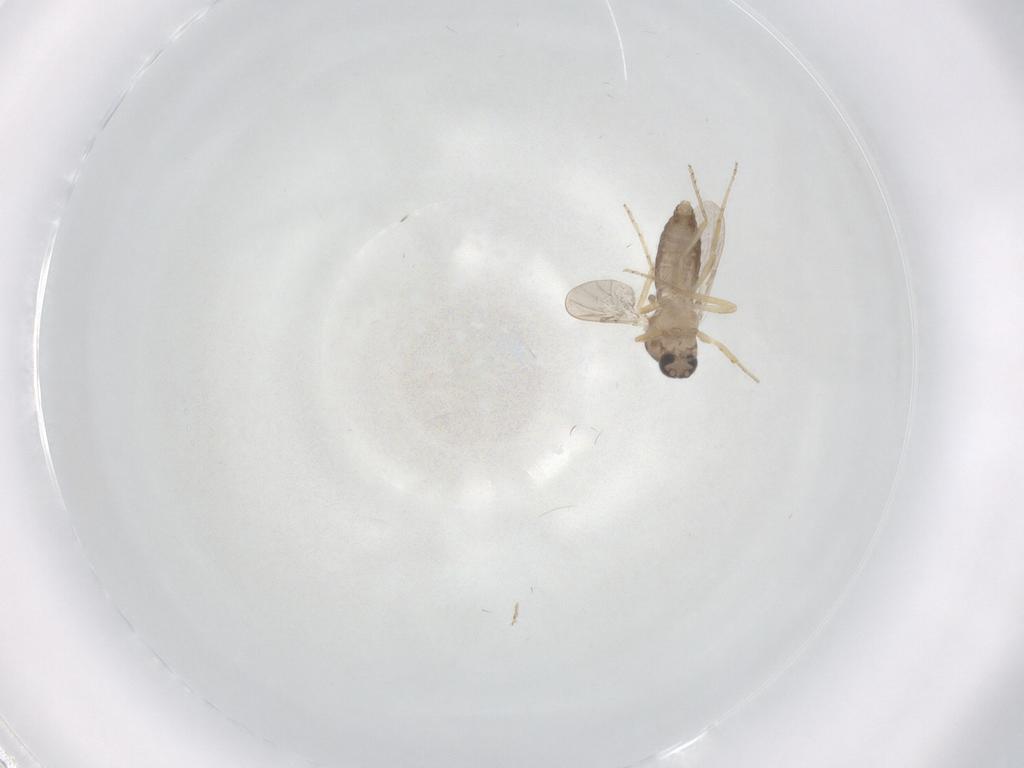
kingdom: Animalia
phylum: Arthropoda
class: Insecta
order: Diptera
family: Ceratopogonidae
